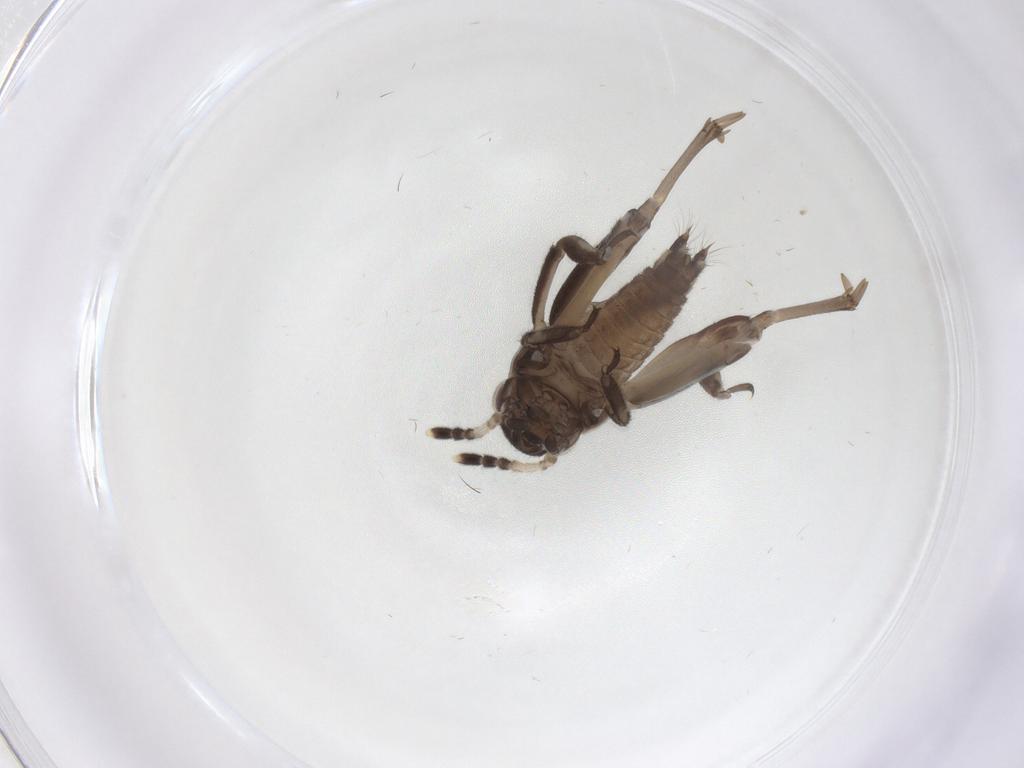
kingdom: Animalia
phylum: Arthropoda
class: Insecta
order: Orthoptera
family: Ripipterygidae
